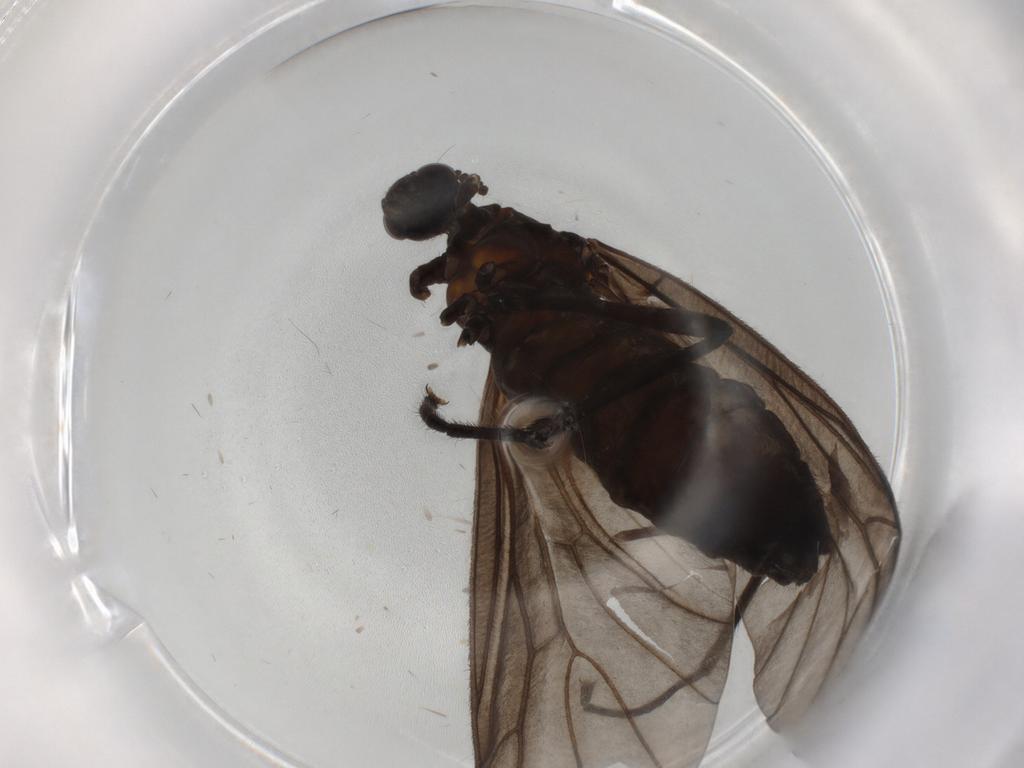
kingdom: Animalia
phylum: Arthropoda
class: Insecta
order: Diptera
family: Bibionidae
